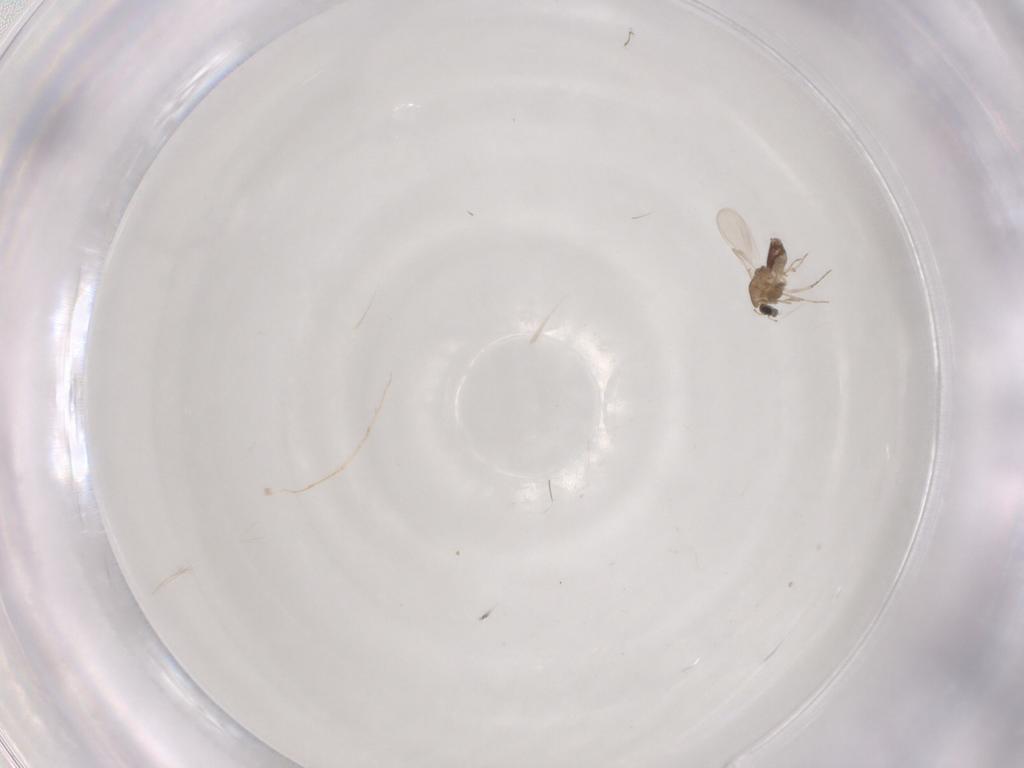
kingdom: Animalia
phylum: Arthropoda
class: Insecta
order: Diptera
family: Chironomidae
